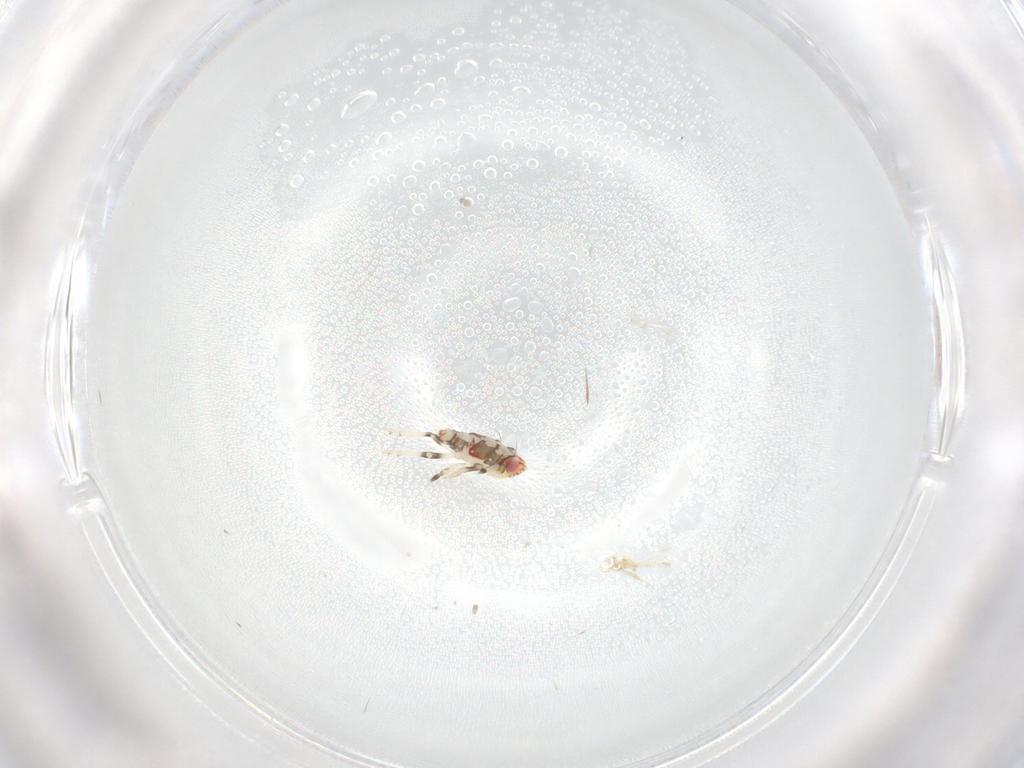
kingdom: Animalia
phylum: Arthropoda
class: Insecta
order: Hemiptera
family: Nogodinidae
